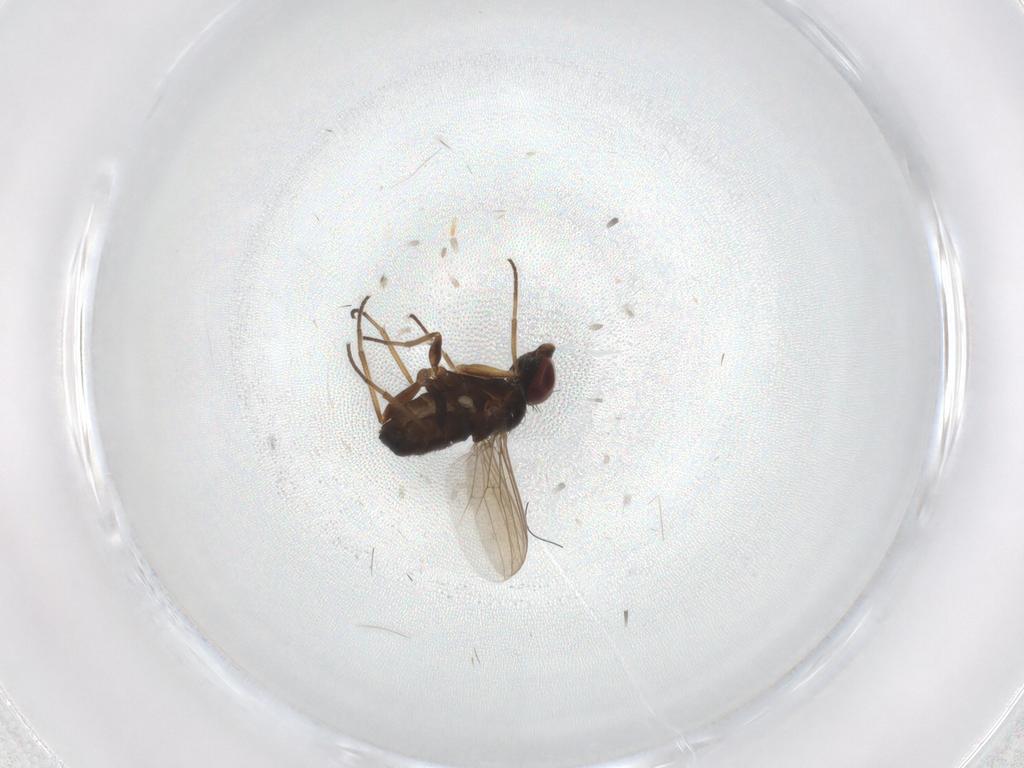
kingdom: Animalia
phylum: Arthropoda
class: Insecta
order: Diptera
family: Dolichopodidae
